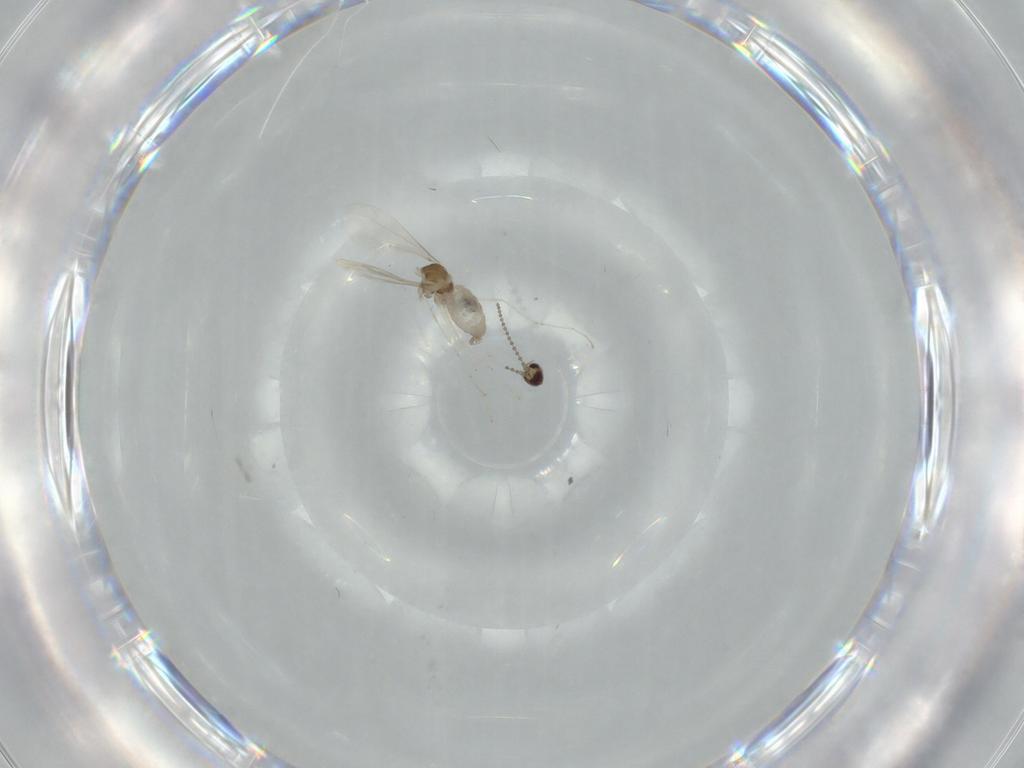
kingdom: Animalia
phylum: Arthropoda
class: Insecta
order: Diptera
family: Cecidomyiidae
